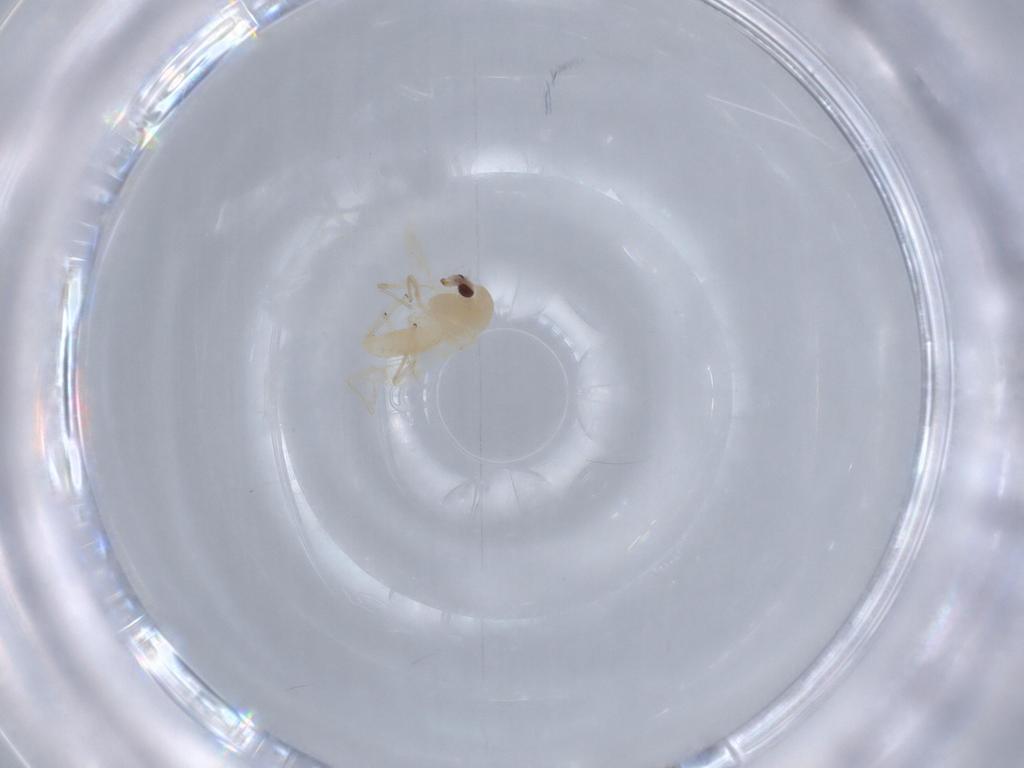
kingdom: Animalia
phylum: Arthropoda
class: Insecta
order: Diptera
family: Chironomidae
